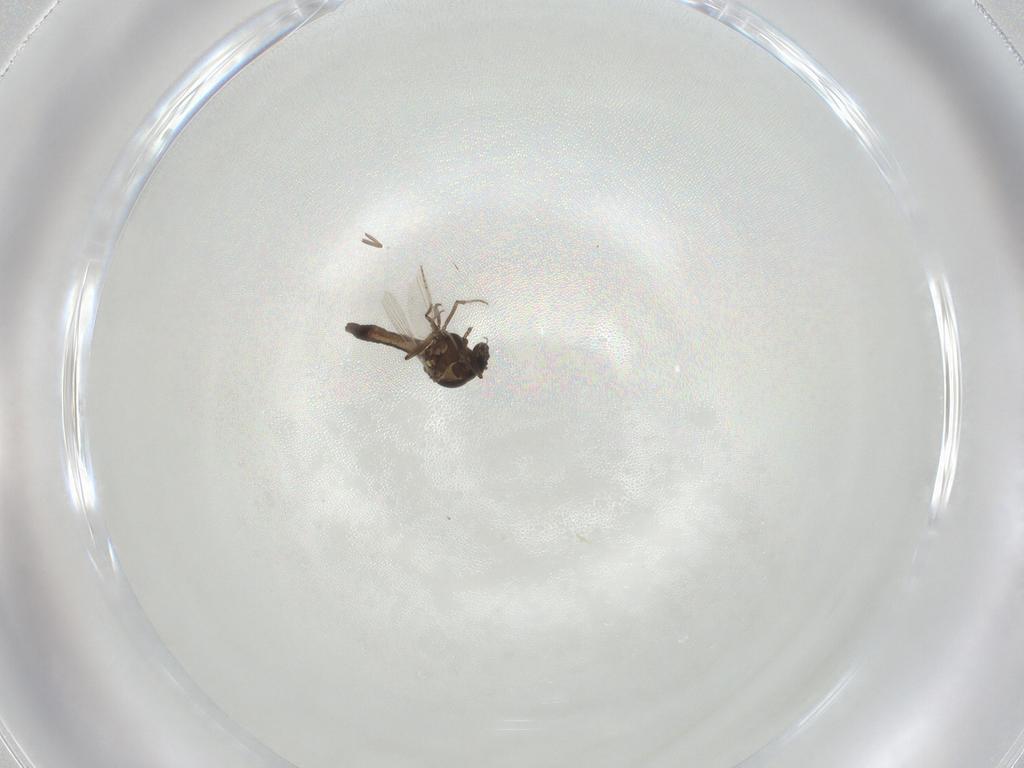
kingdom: Animalia
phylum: Arthropoda
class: Insecta
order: Diptera
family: Ceratopogonidae
